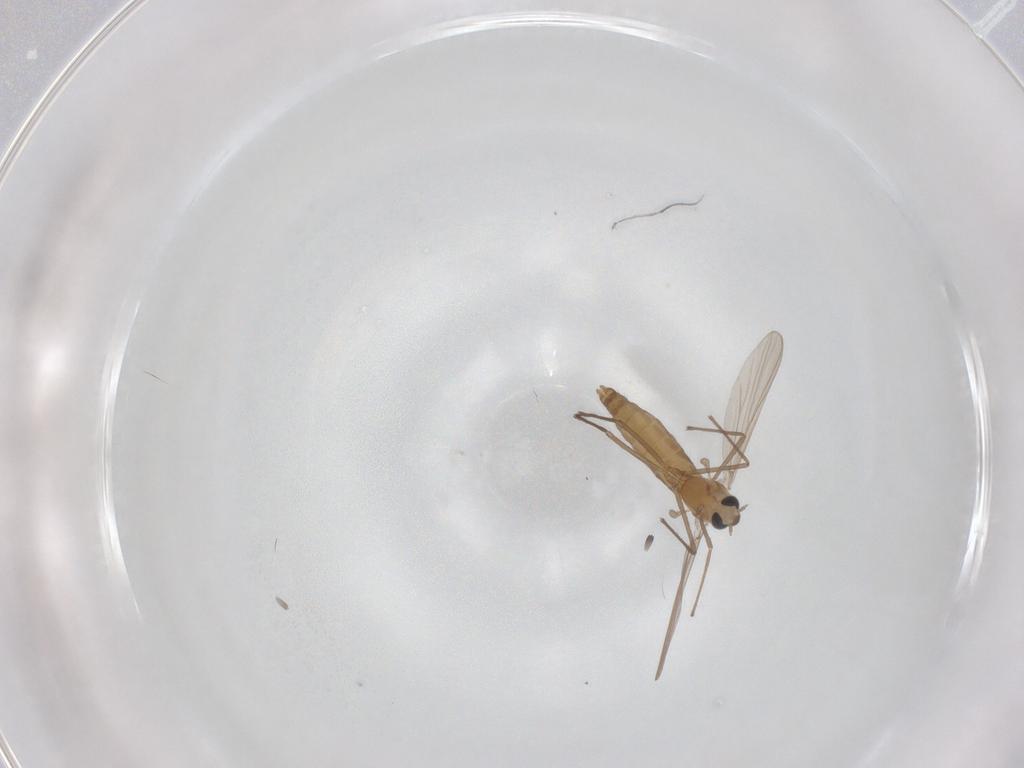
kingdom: Animalia
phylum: Arthropoda
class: Insecta
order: Diptera
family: Chironomidae
